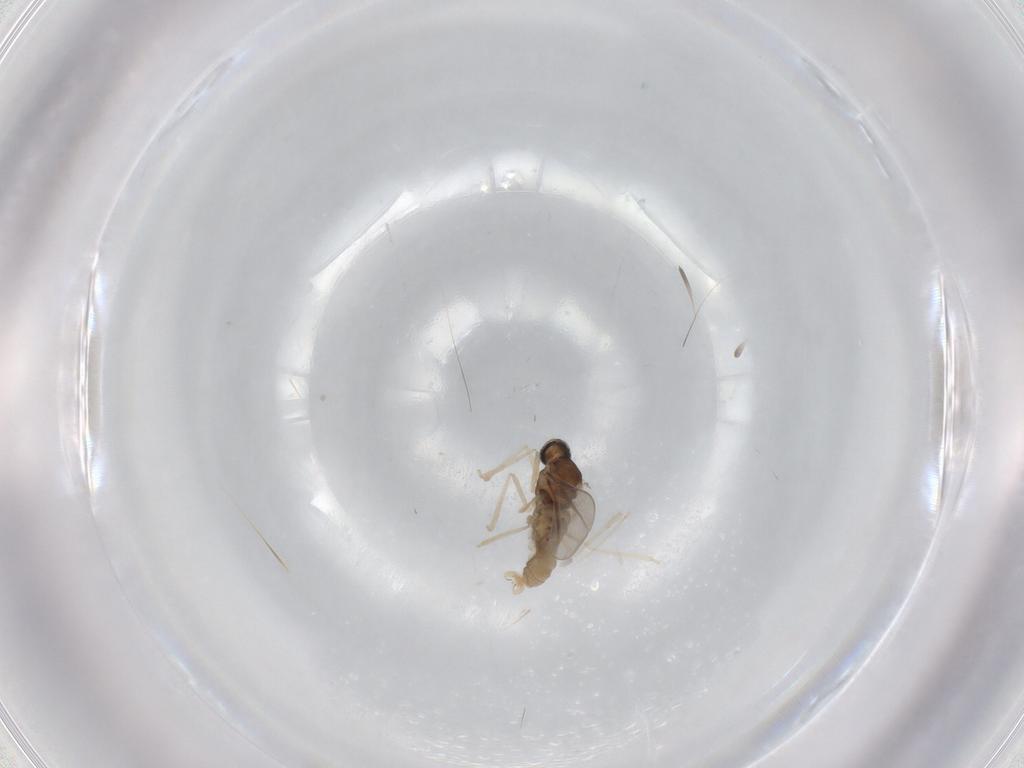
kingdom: Animalia
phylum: Arthropoda
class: Insecta
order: Diptera
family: Cecidomyiidae
